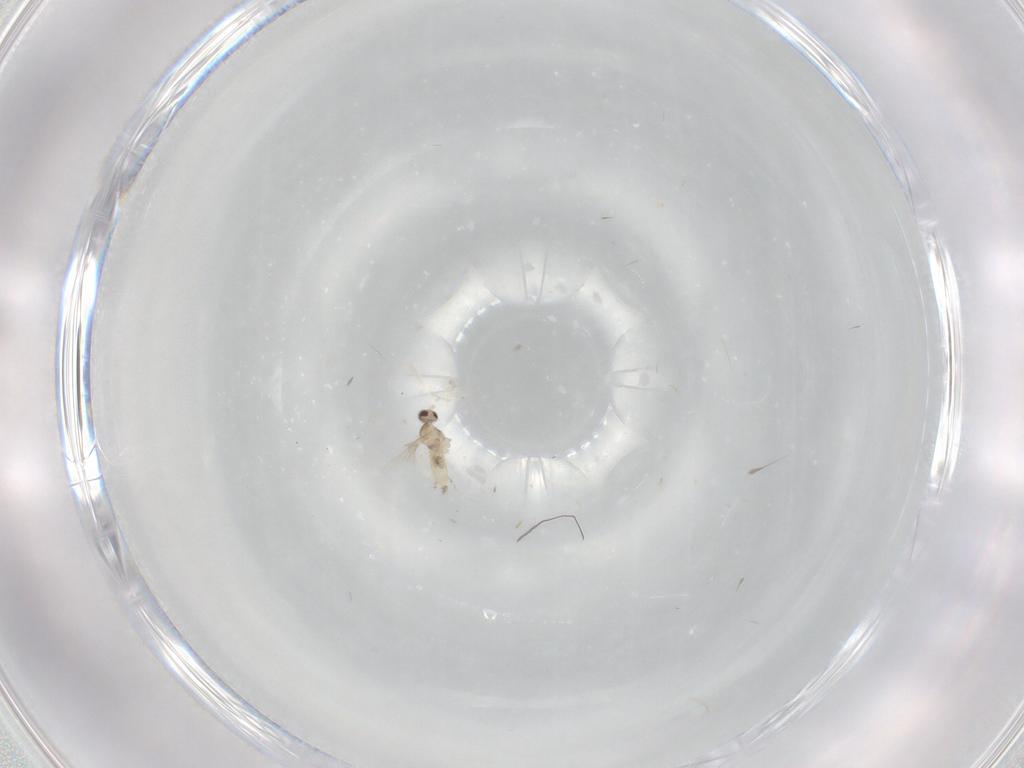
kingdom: Animalia
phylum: Arthropoda
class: Insecta
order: Diptera
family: Cecidomyiidae
